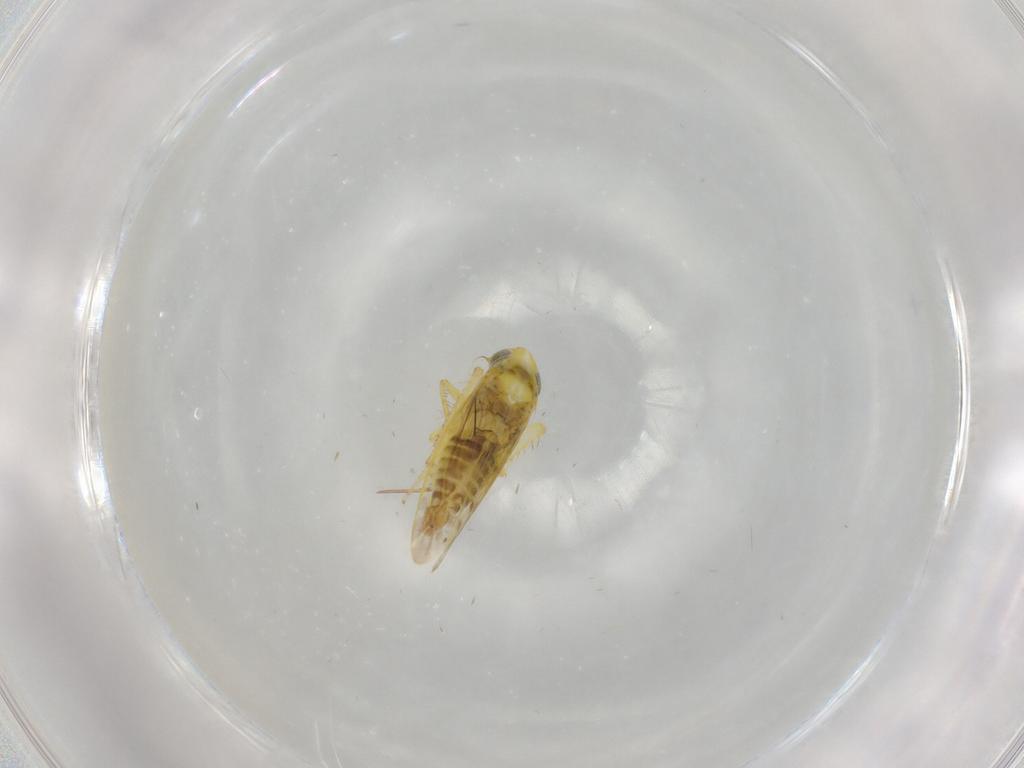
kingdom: Animalia
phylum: Arthropoda
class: Insecta
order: Hemiptera
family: Cicadellidae
